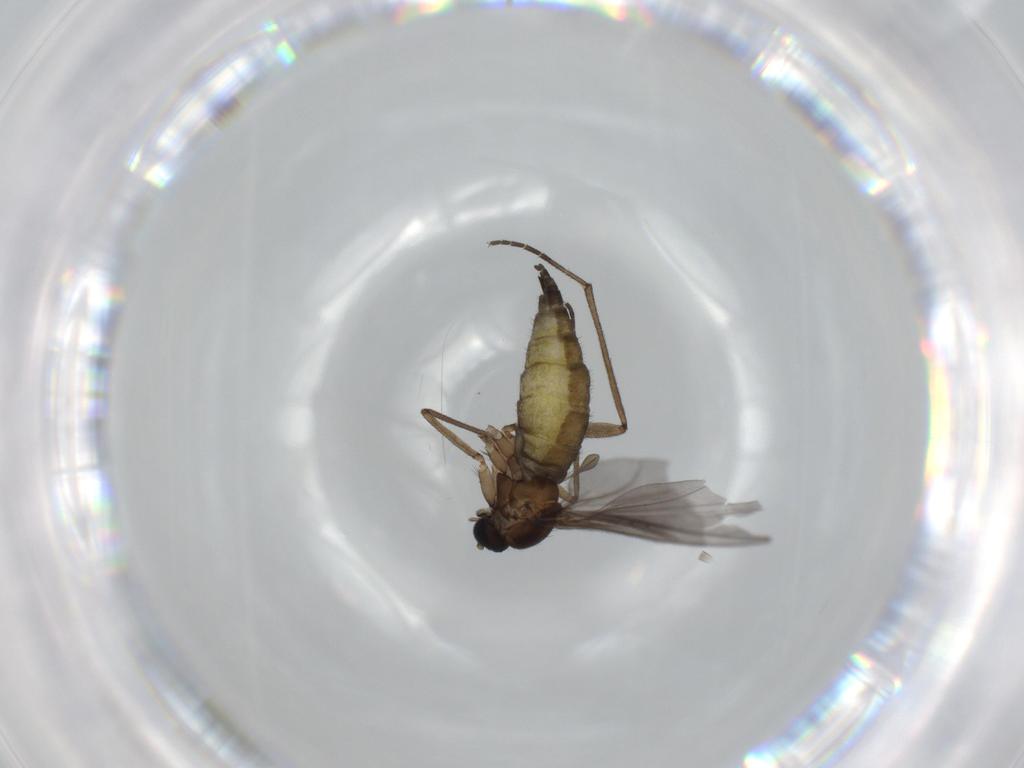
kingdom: Animalia
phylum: Arthropoda
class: Insecta
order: Diptera
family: Sciaridae
